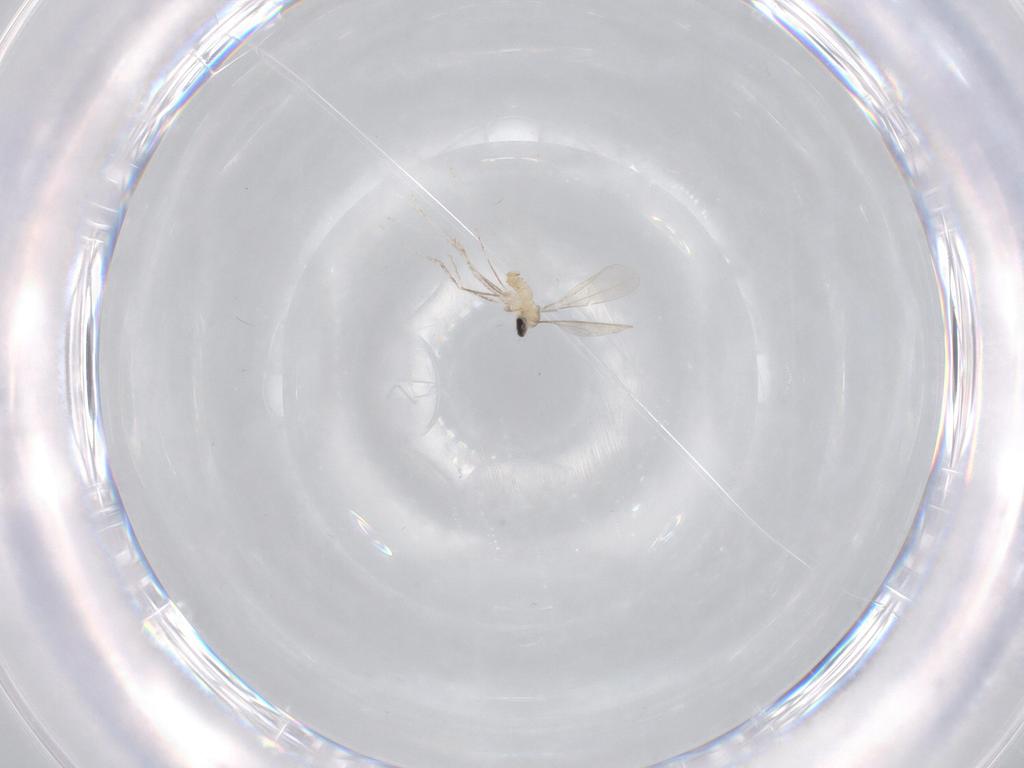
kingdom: Animalia
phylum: Arthropoda
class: Insecta
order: Diptera
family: Cecidomyiidae
